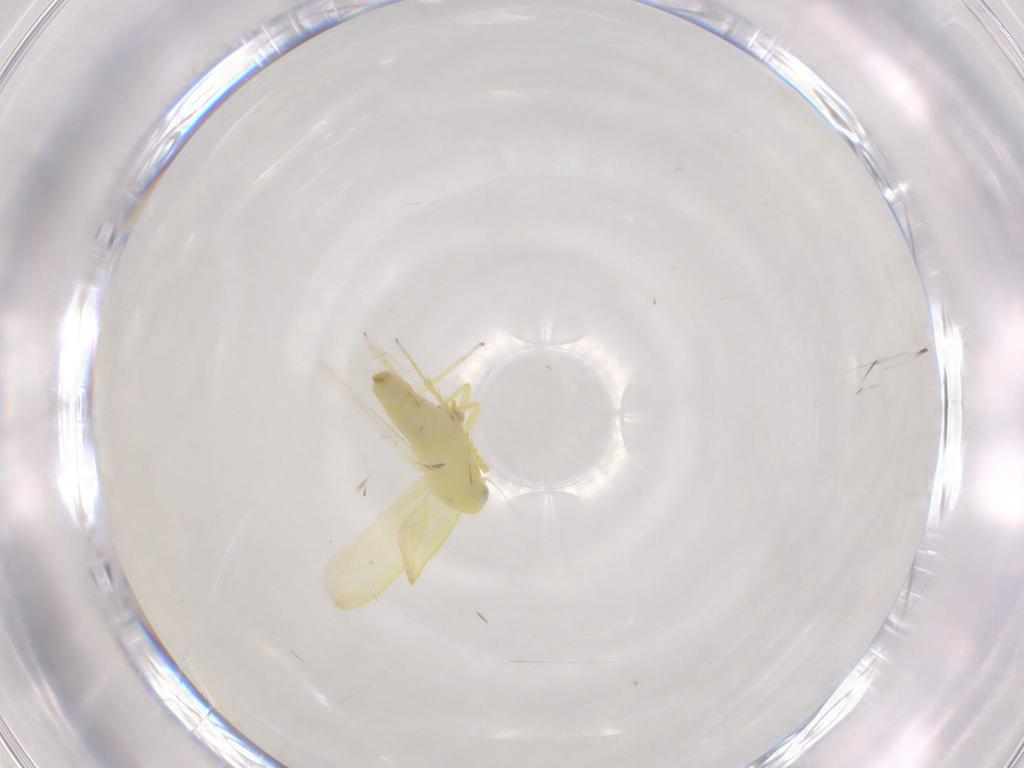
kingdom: Animalia
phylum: Arthropoda
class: Insecta
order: Hemiptera
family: Cicadellidae
